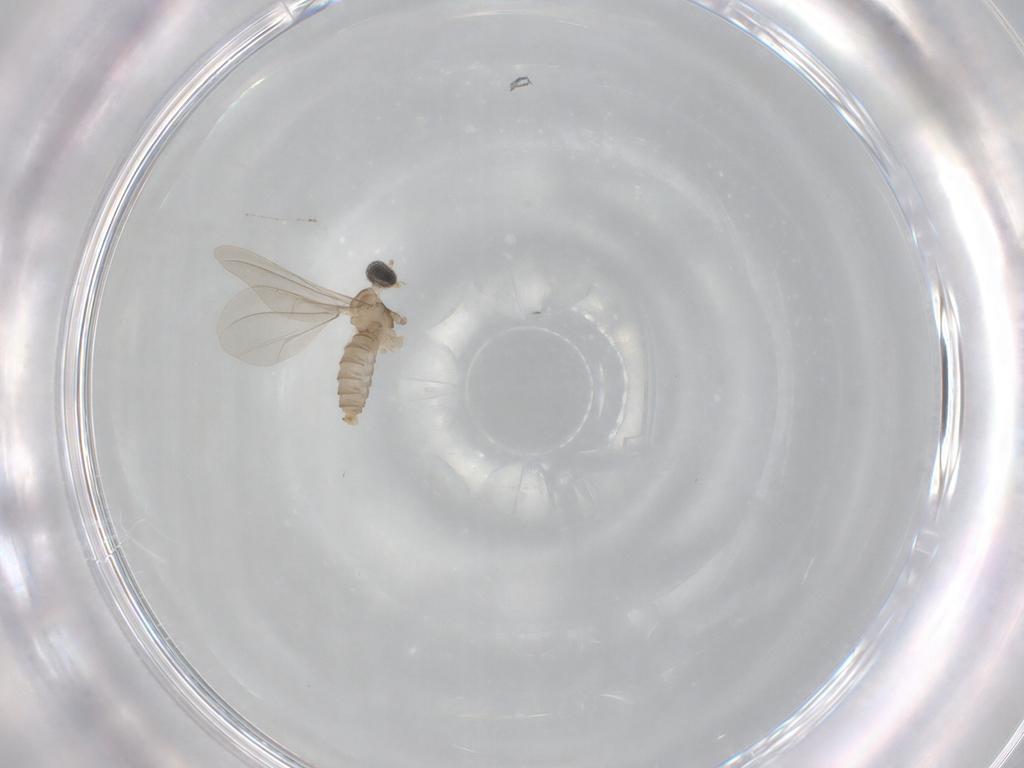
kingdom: Animalia
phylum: Arthropoda
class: Insecta
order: Diptera
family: Cecidomyiidae
